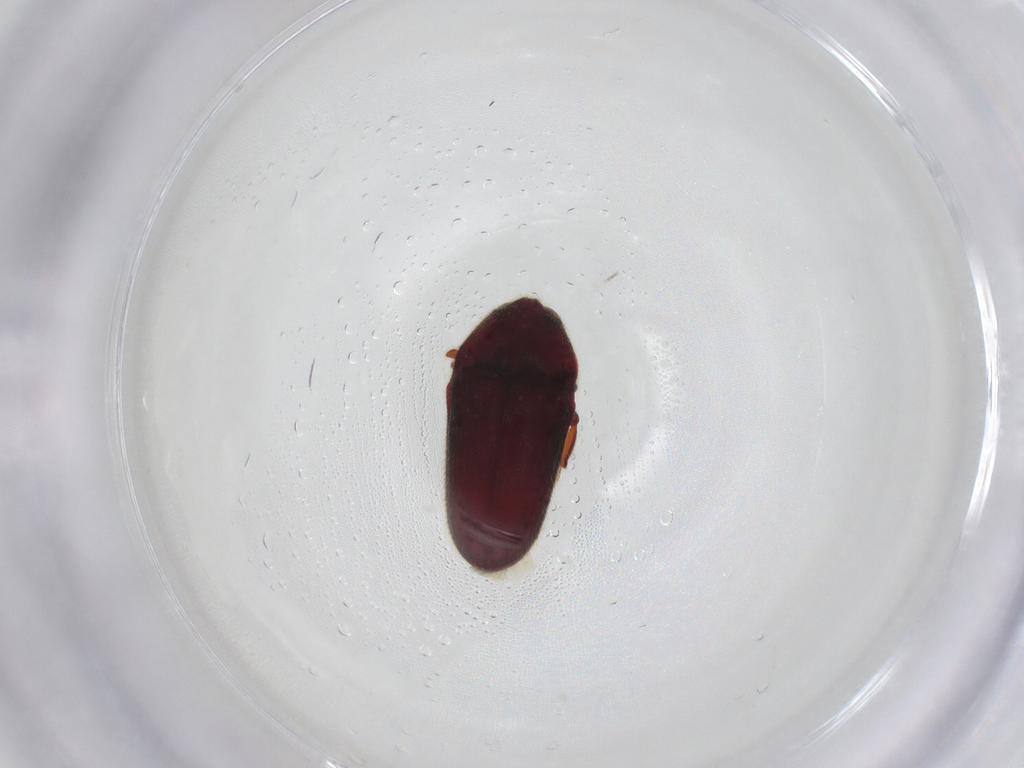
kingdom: Animalia
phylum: Arthropoda
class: Insecta
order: Coleoptera
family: Throscidae
